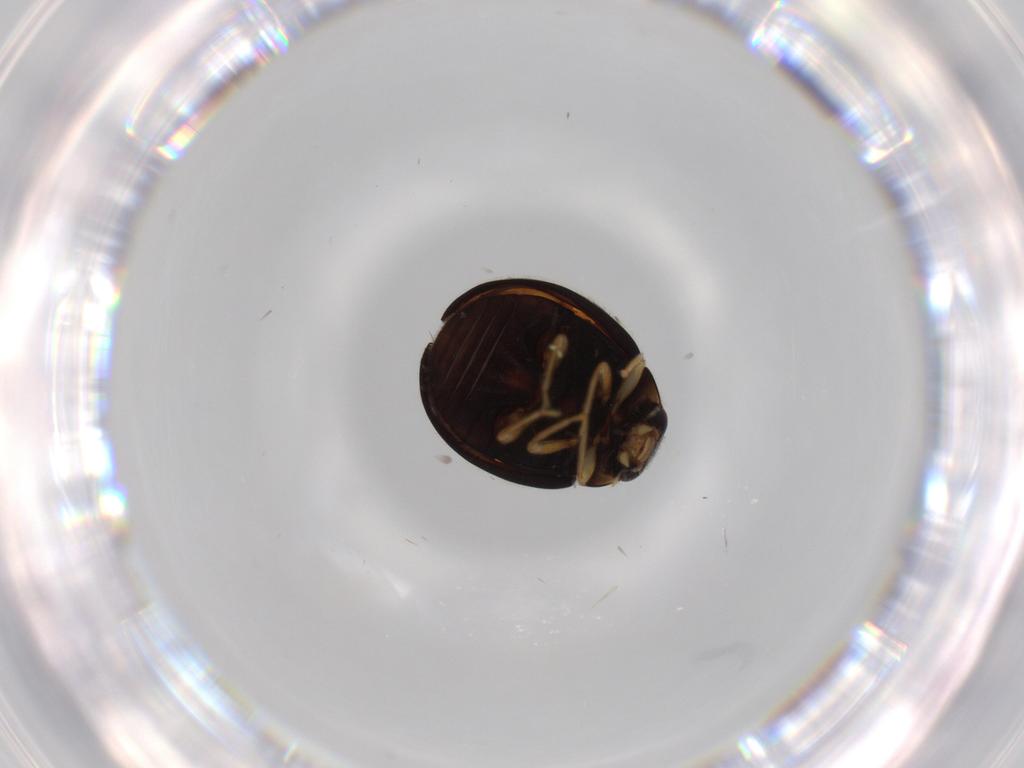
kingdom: Animalia
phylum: Arthropoda
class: Insecta
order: Coleoptera
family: Coccinellidae
